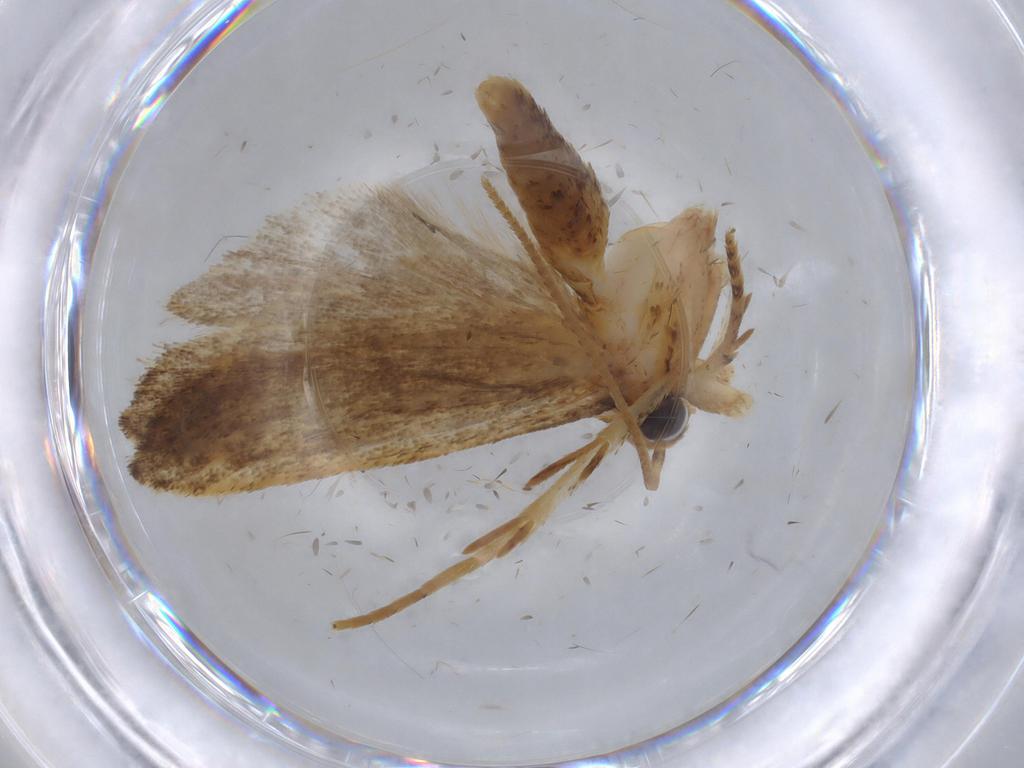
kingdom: Animalia
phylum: Arthropoda
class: Insecta
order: Lepidoptera
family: Autostichidae
